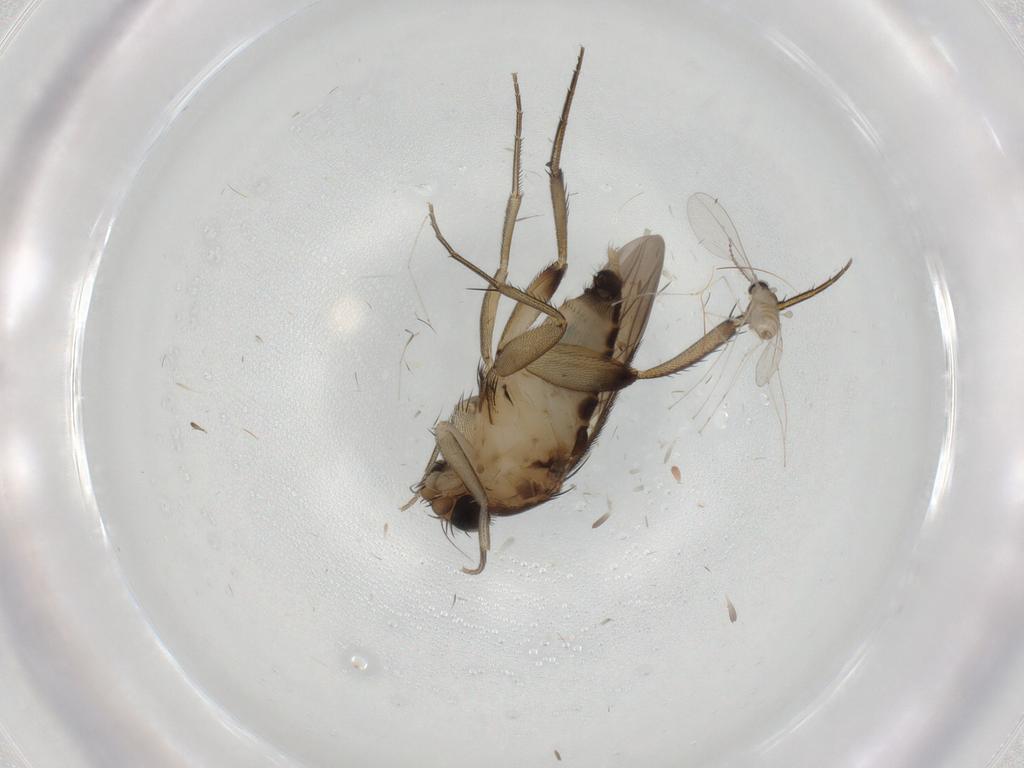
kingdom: Animalia
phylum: Arthropoda
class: Insecta
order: Diptera
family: Phoridae
